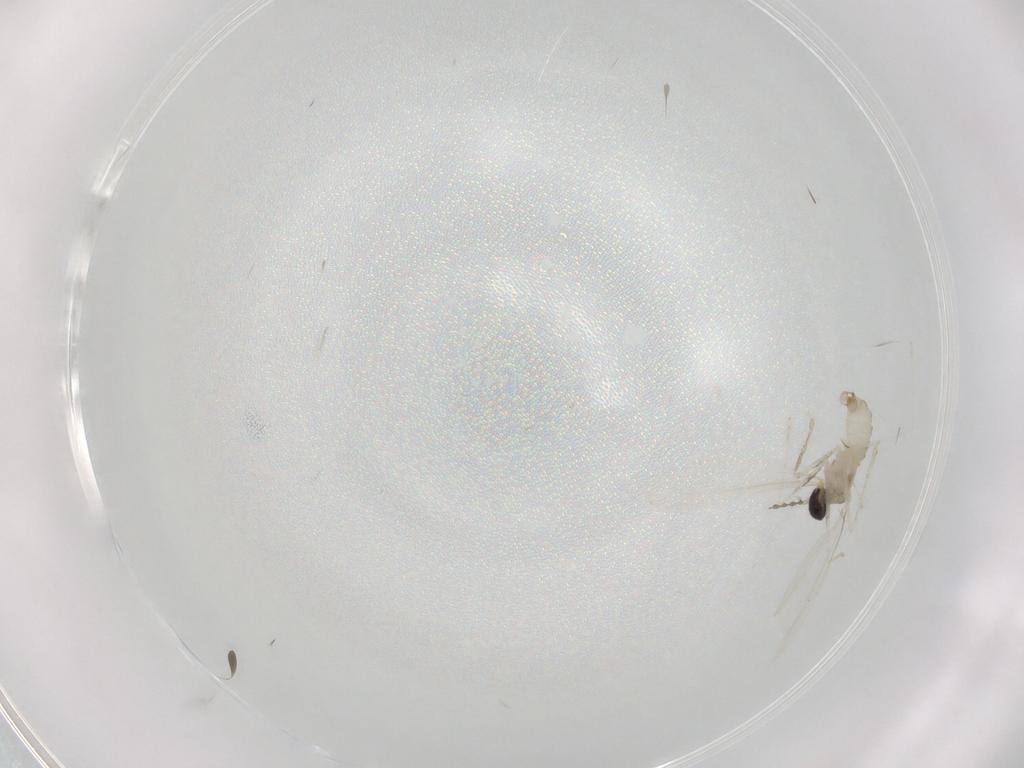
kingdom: Animalia
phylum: Arthropoda
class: Insecta
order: Diptera
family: Cecidomyiidae
